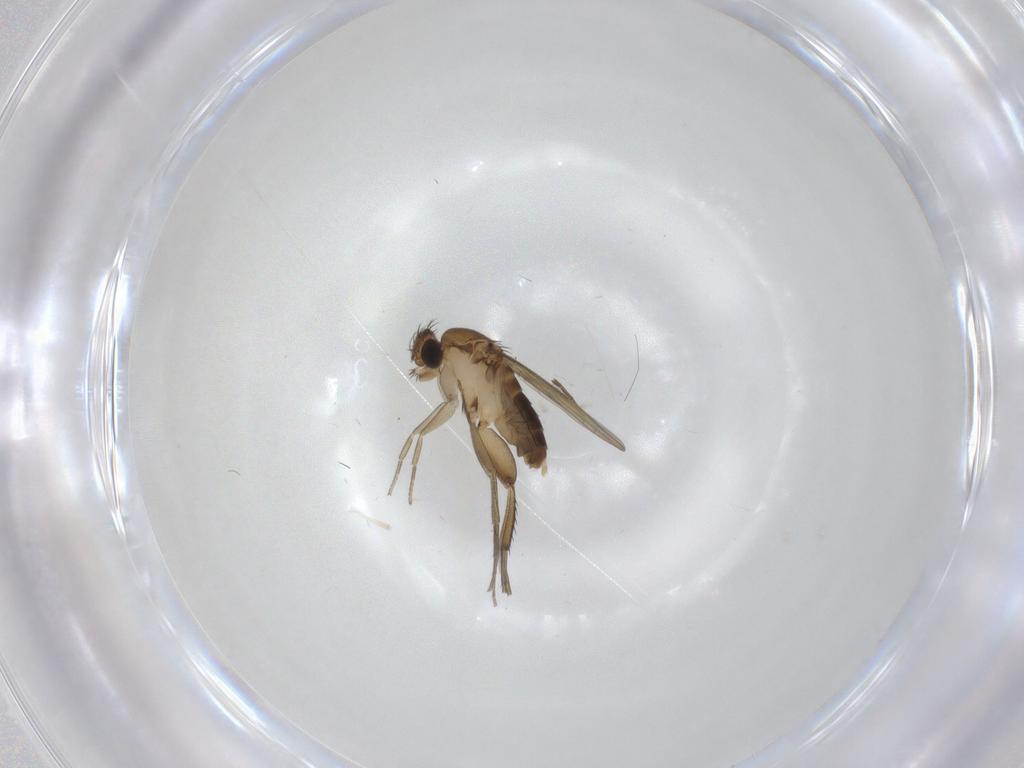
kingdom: Animalia
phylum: Arthropoda
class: Insecta
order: Diptera
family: Phoridae
